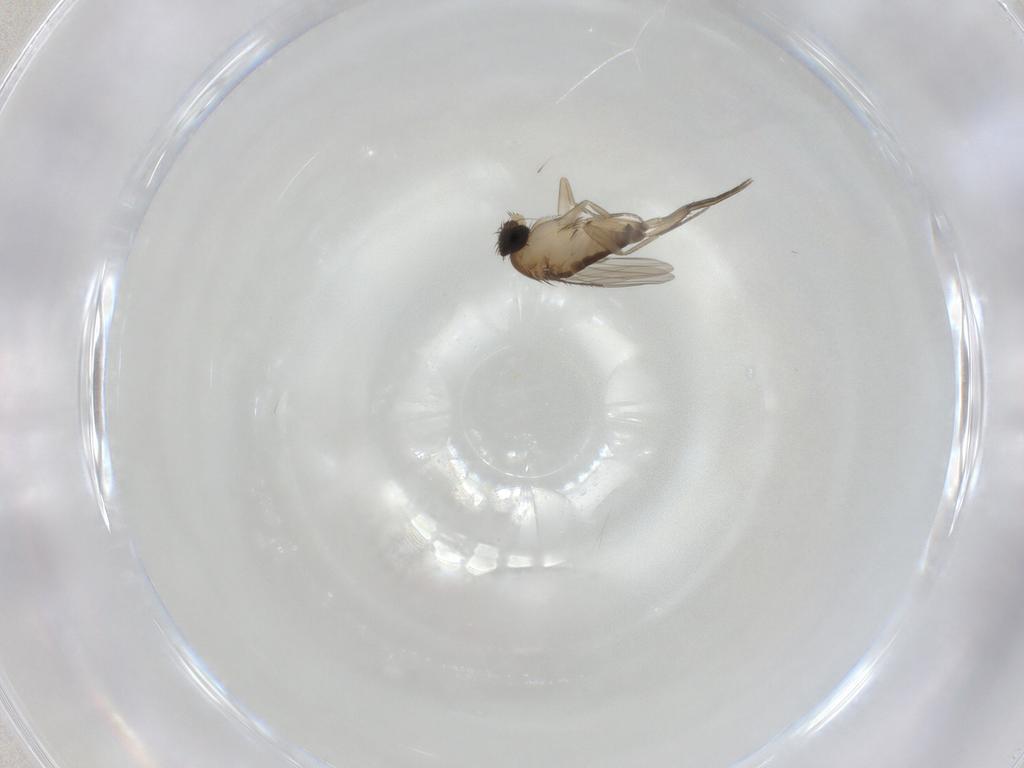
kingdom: Animalia
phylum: Arthropoda
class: Insecta
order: Diptera
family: Phoridae
